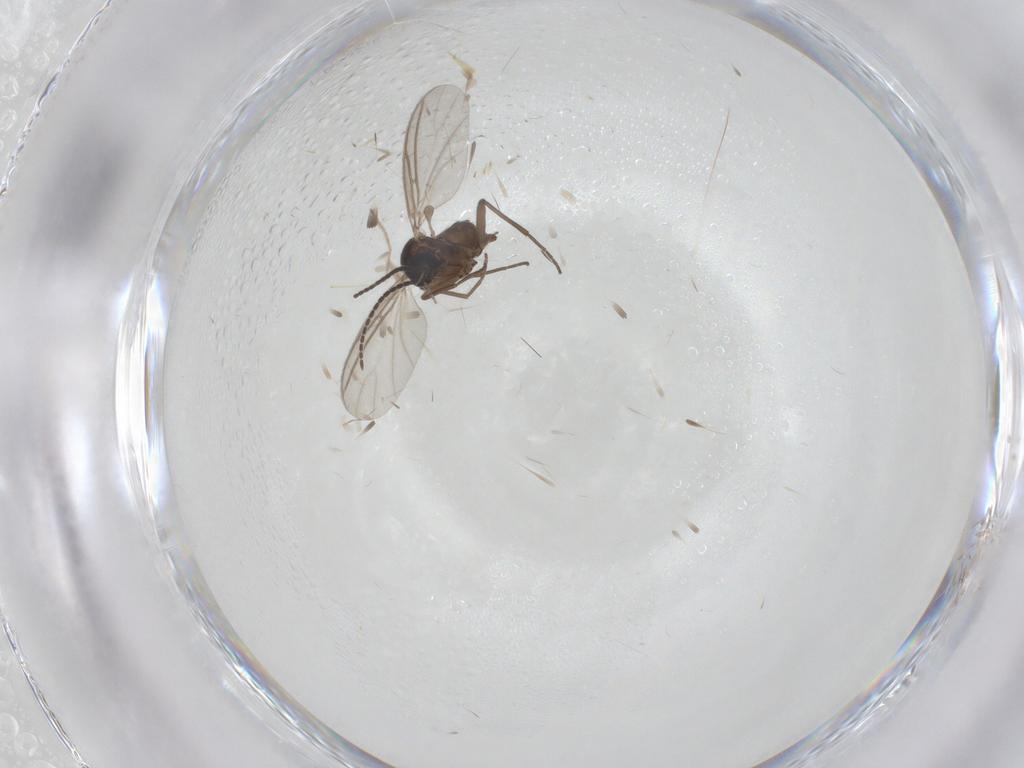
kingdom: Animalia
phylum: Arthropoda
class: Insecta
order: Diptera
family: Sciaridae
